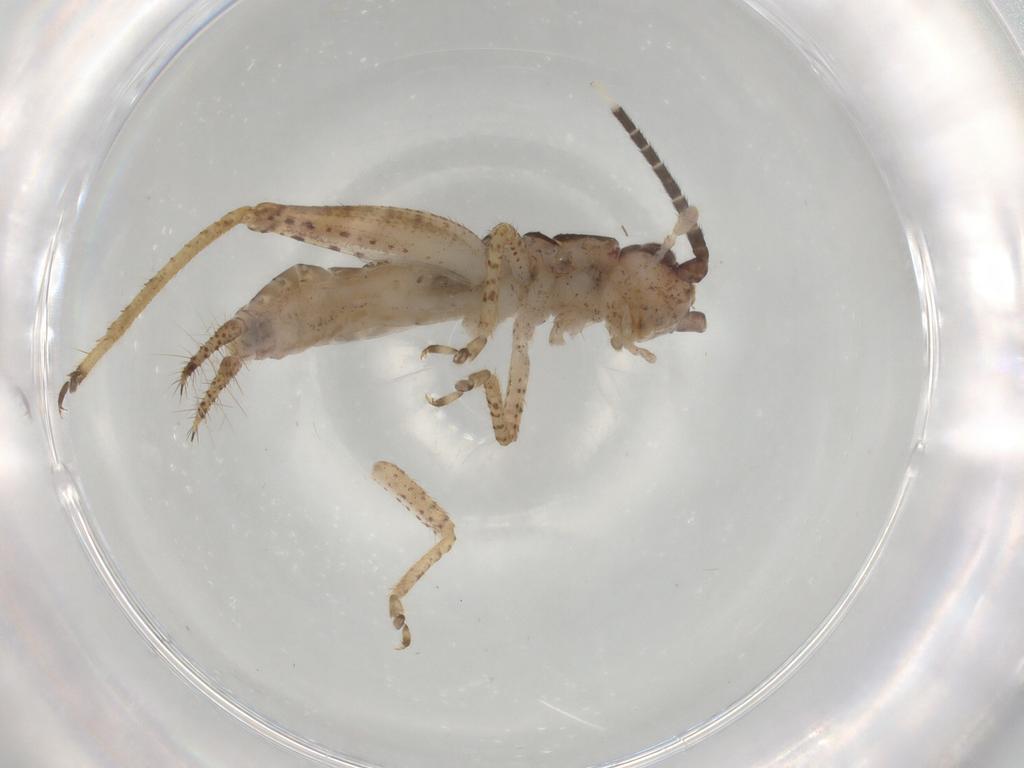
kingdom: Animalia
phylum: Arthropoda
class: Insecta
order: Orthoptera
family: Gryllidae
